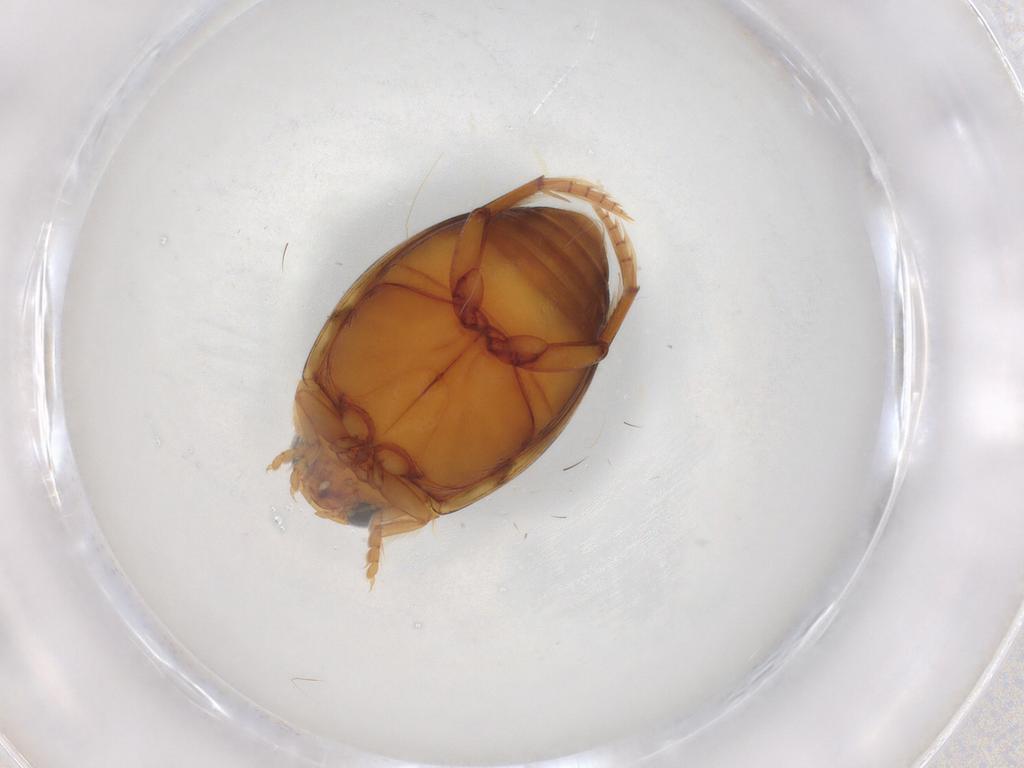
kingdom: Animalia
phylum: Arthropoda
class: Insecta
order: Coleoptera
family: Dytiscidae
